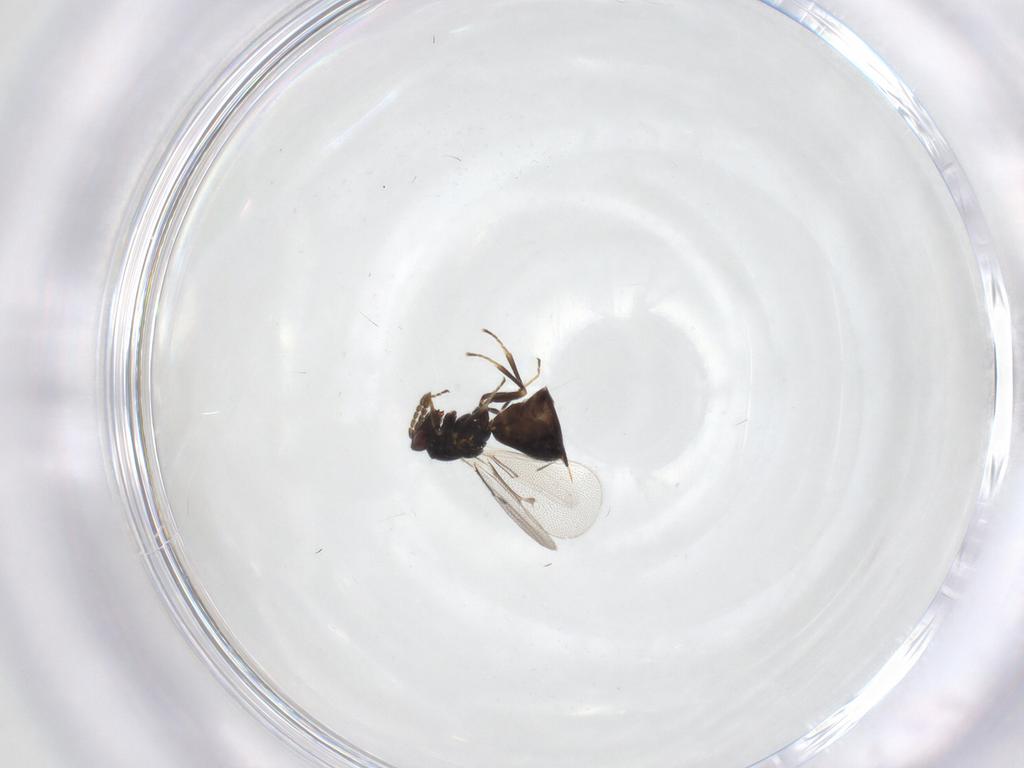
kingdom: Animalia
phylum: Arthropoda
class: Insecta
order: Hymenoptera
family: Eulophidae
